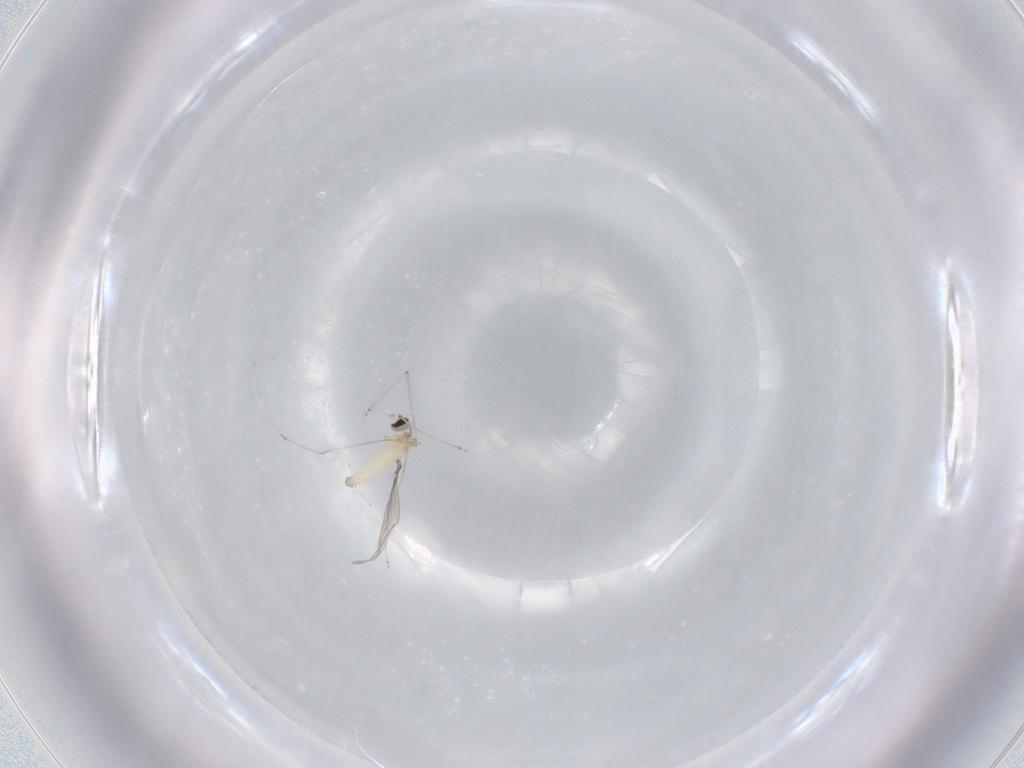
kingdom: Animalia
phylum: Arthropoda
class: Insecta
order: Diptera
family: Cecidomyiidae
